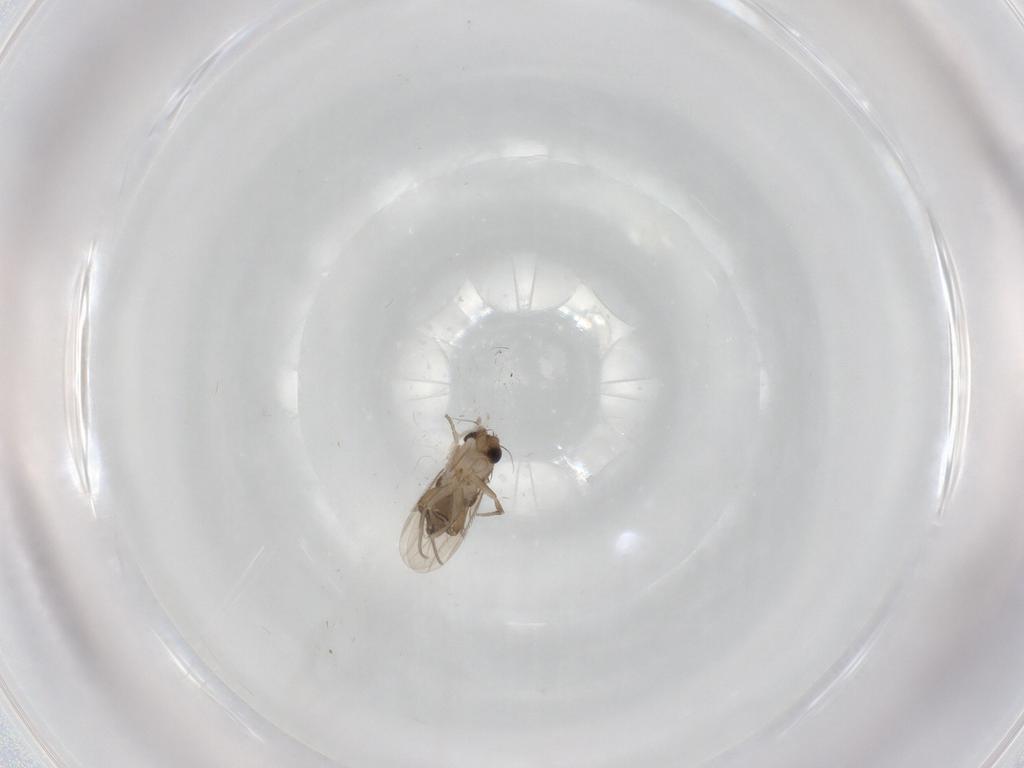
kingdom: Animalia
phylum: Arthropoda
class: Insecta
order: Diptera
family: Phoridae
